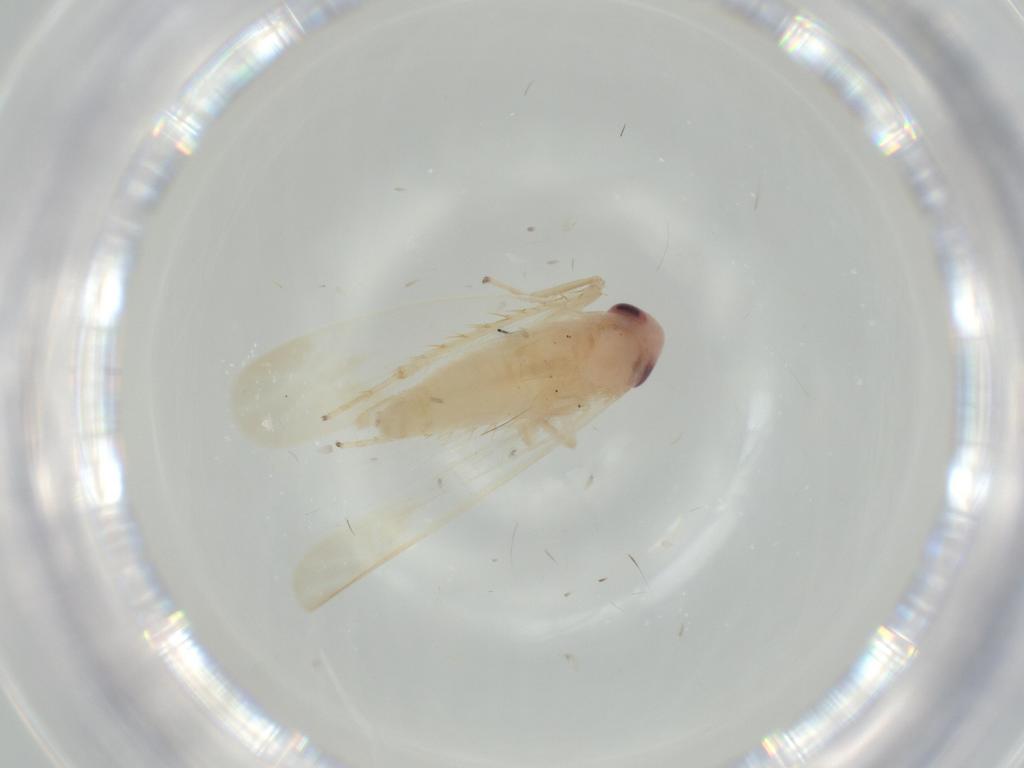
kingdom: Animalia
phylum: Arthropoda
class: Insecta
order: Hemiptera
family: Cicadellidae
